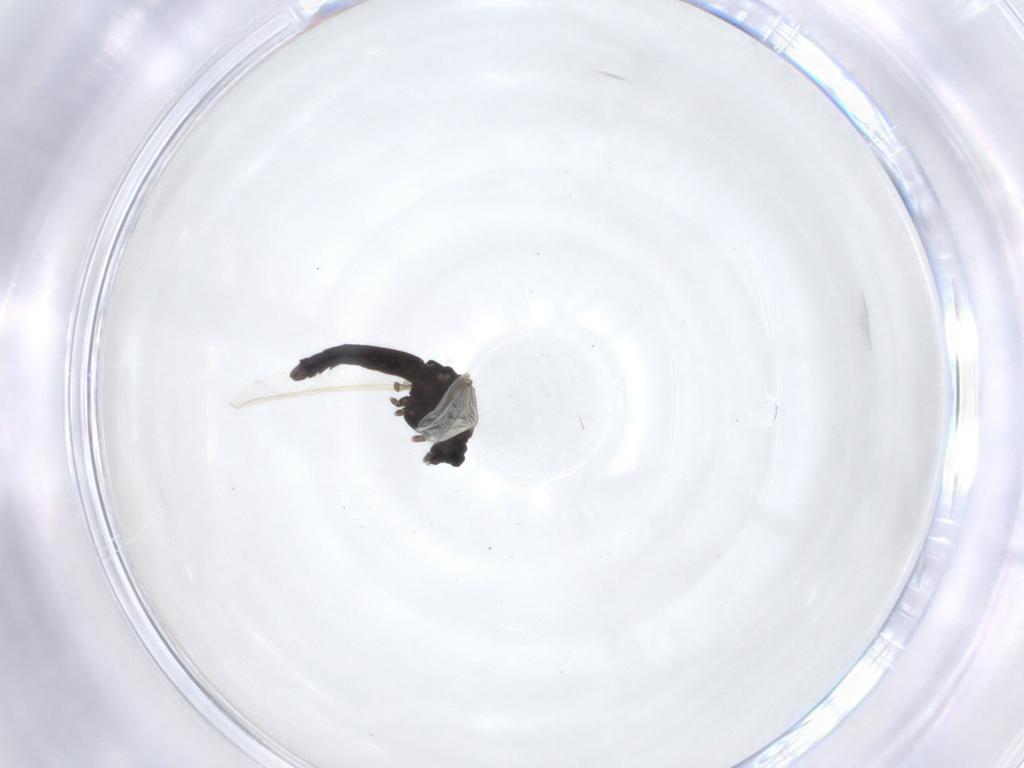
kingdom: Animalia
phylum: Arthropoda
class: Insecta
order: Diptera
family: Chironomidae
